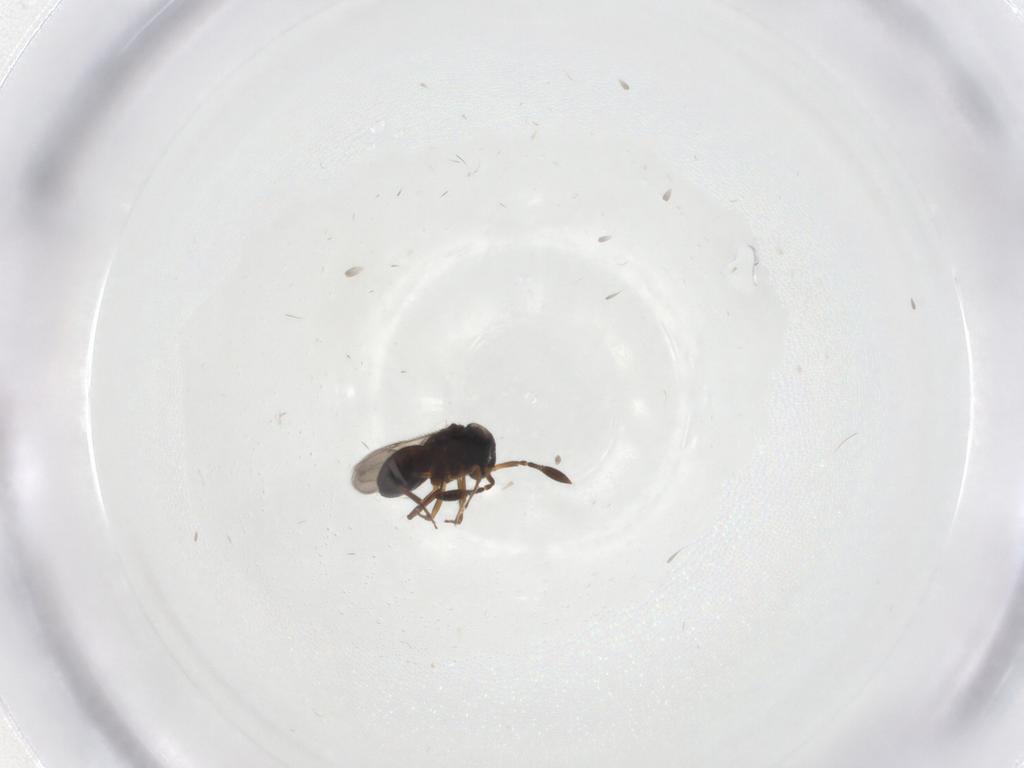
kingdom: Animalia
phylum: Arthropoda
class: Insecta
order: Hymenoptera
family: Scelionidae
